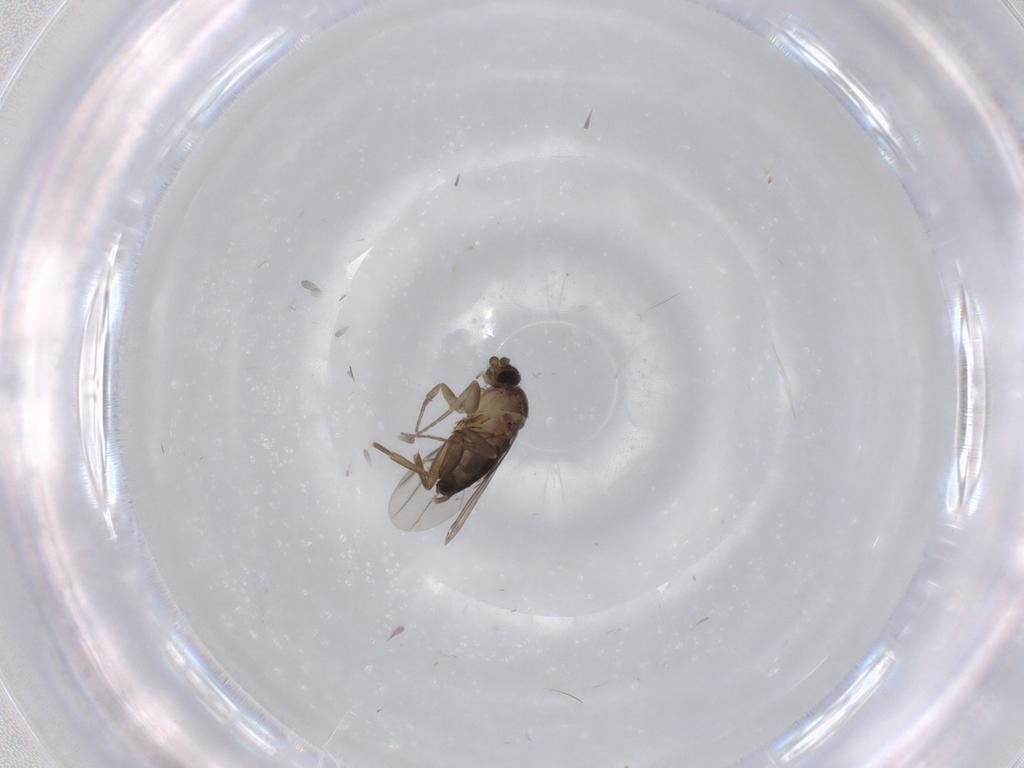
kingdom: Animalia
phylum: Arthropoda
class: Insecta
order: Diptera
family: Phoridae
